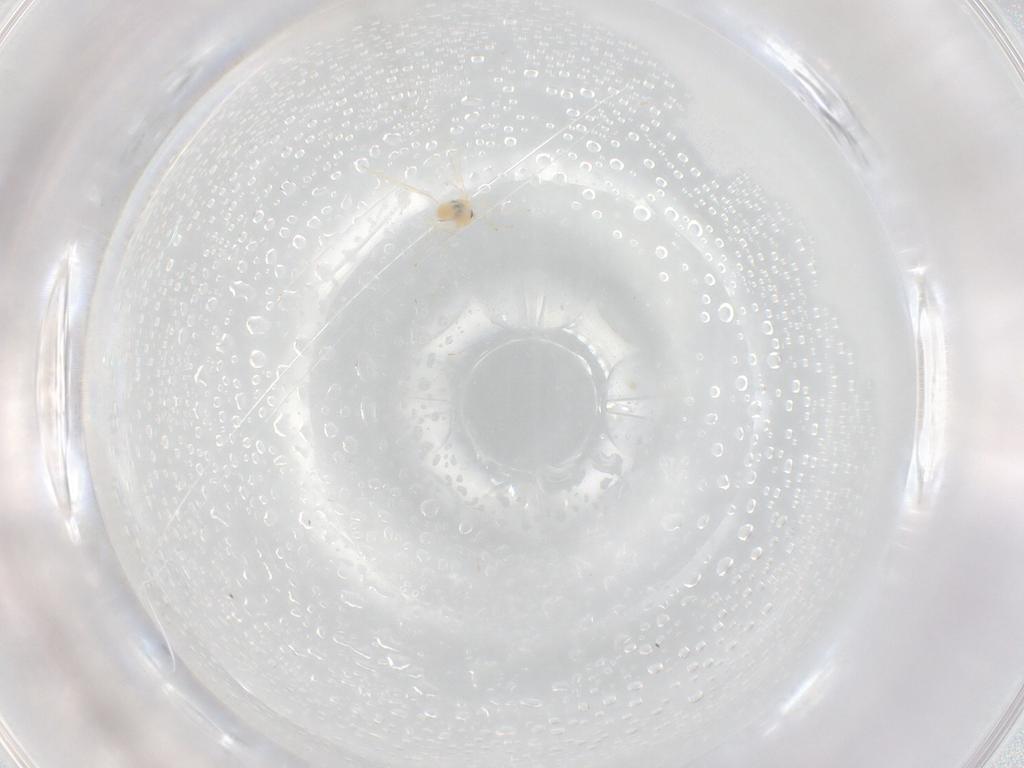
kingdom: Animalia
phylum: Arthropoda
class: Insecta
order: Diptera
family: Cecidomyiidae
